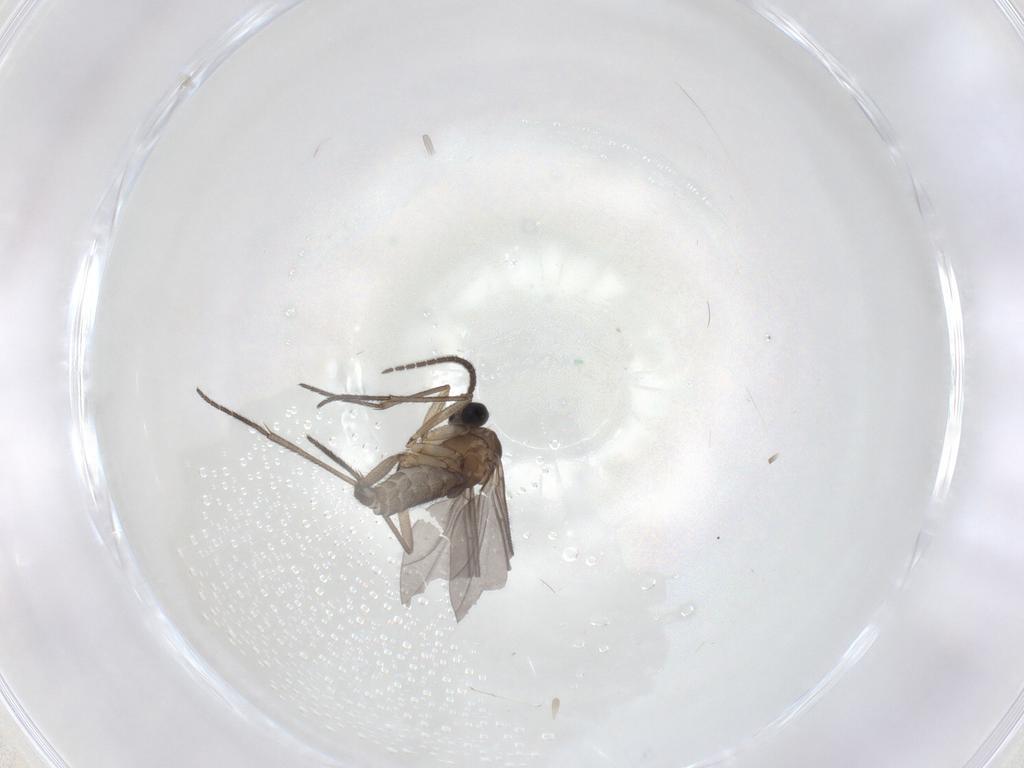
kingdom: Animalia
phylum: Arthropoda
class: Insecta
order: Diptera
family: Sciaridae
